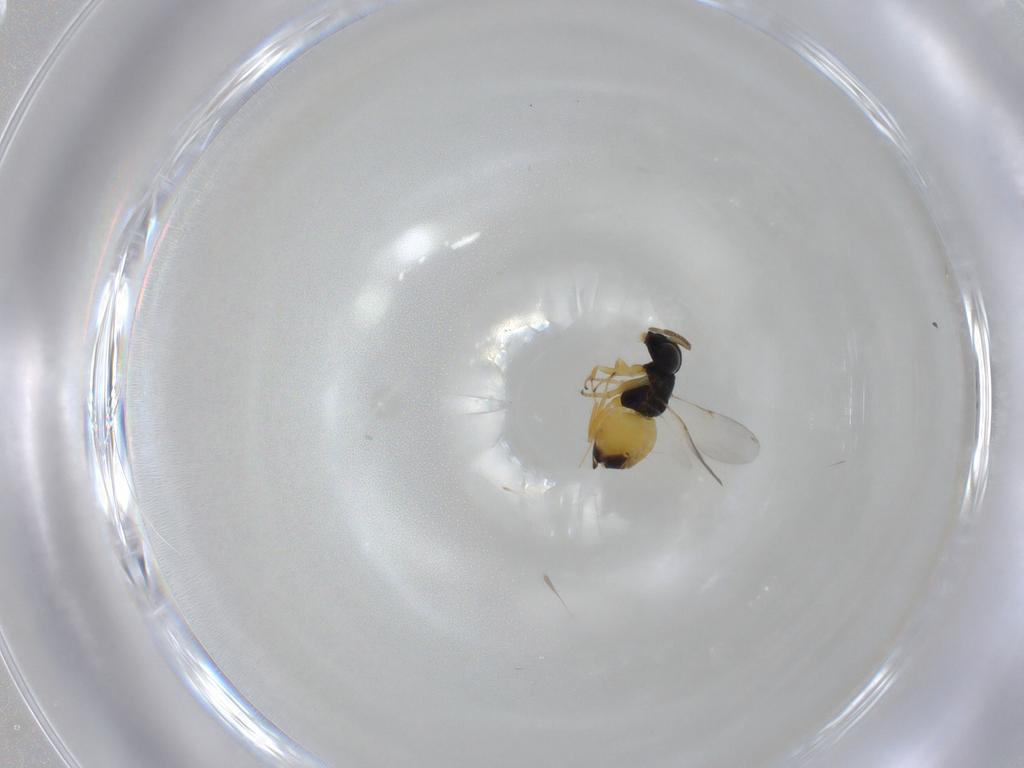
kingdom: Animalia
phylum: Arthropoda
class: Insecta
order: Hymenoptera
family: Encyrtidae
